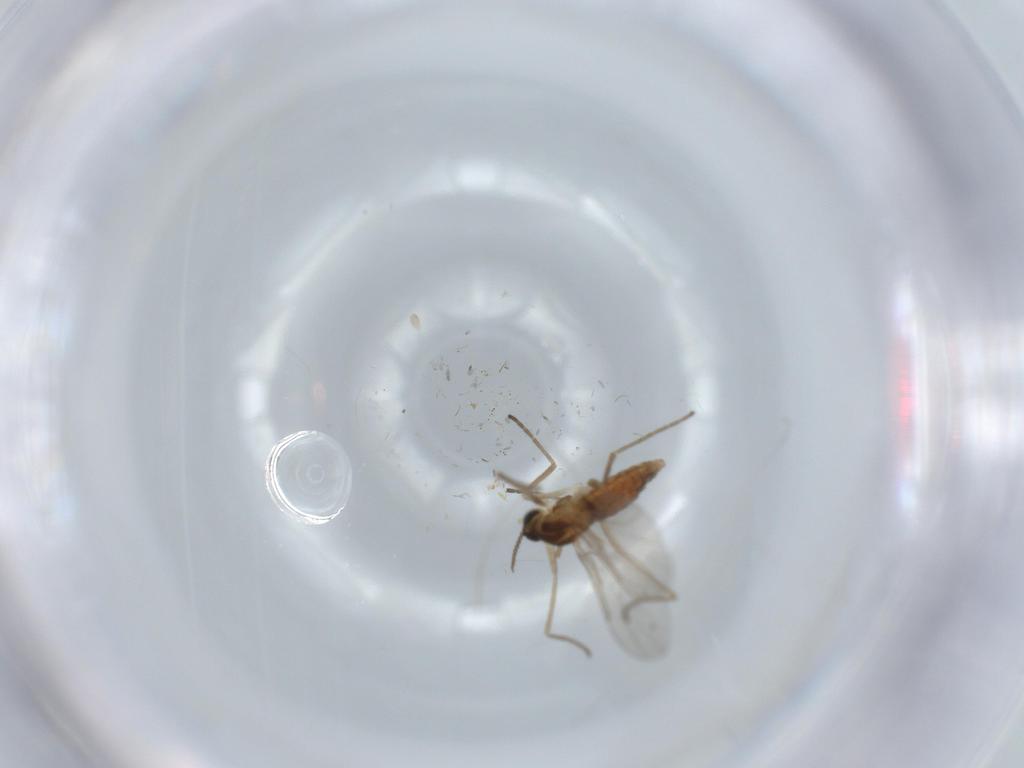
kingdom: Animalia
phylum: Arthropoda
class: Insecta
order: Diptera
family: Cecidomyiidae
